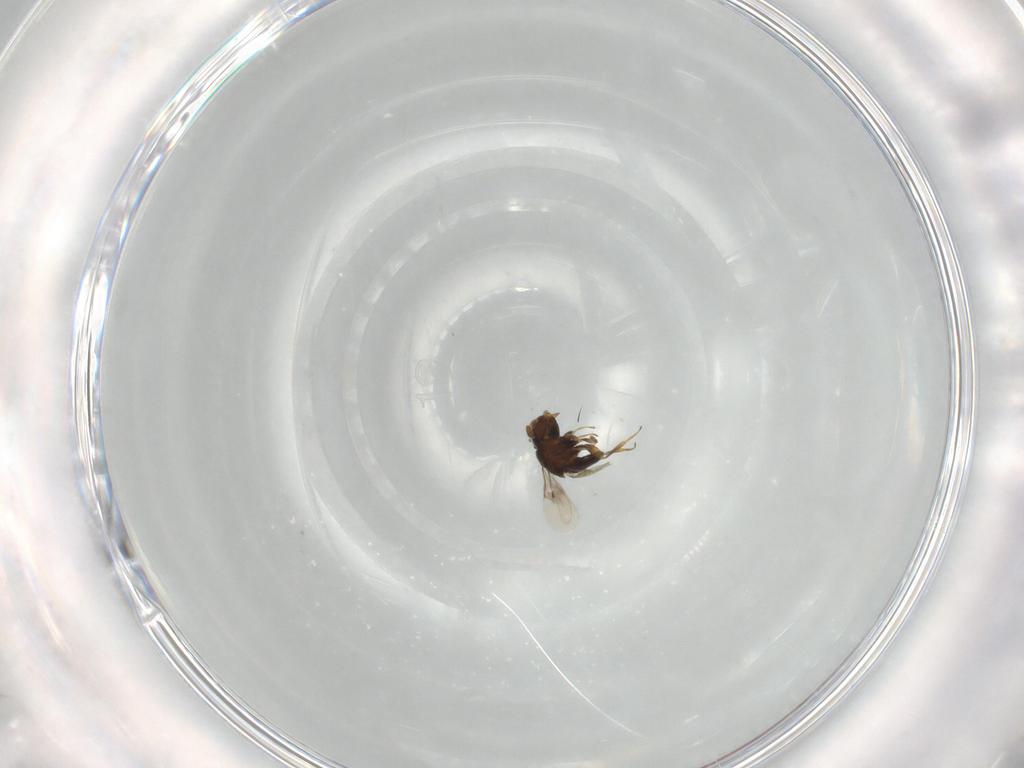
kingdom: Animalia
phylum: Arthropoda
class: Insecta
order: Hymenoptera
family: Scelionidae
